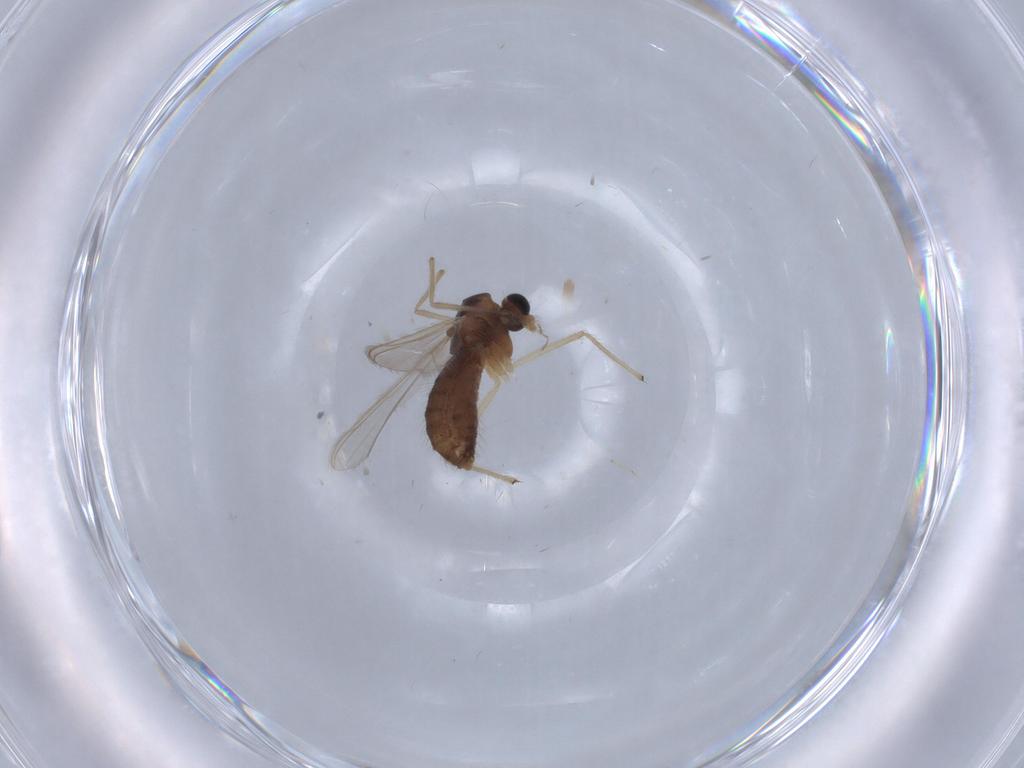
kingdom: Animalia
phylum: Arthropoda
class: Insecta
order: Diptera
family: Chironomidae
